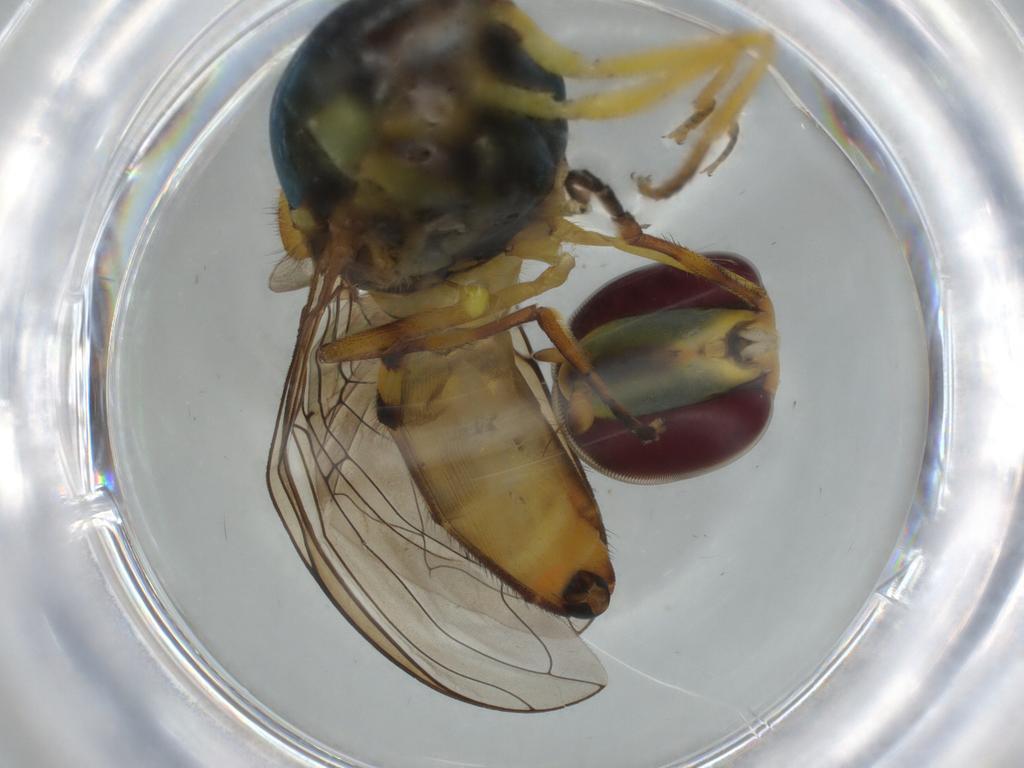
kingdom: Animalia
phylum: Arthropoda
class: Insecta
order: Diptera
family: Syrphidae
